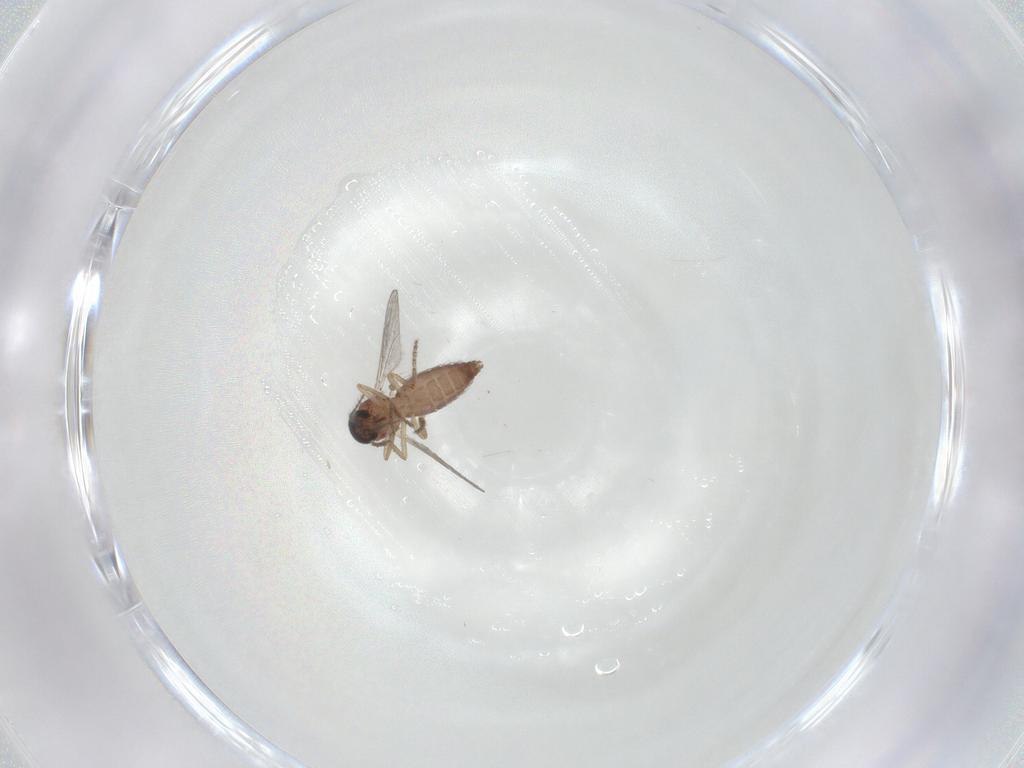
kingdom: Animalia
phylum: Arthropoda
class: Insecta
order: Diptera
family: Ceratopogonidae
